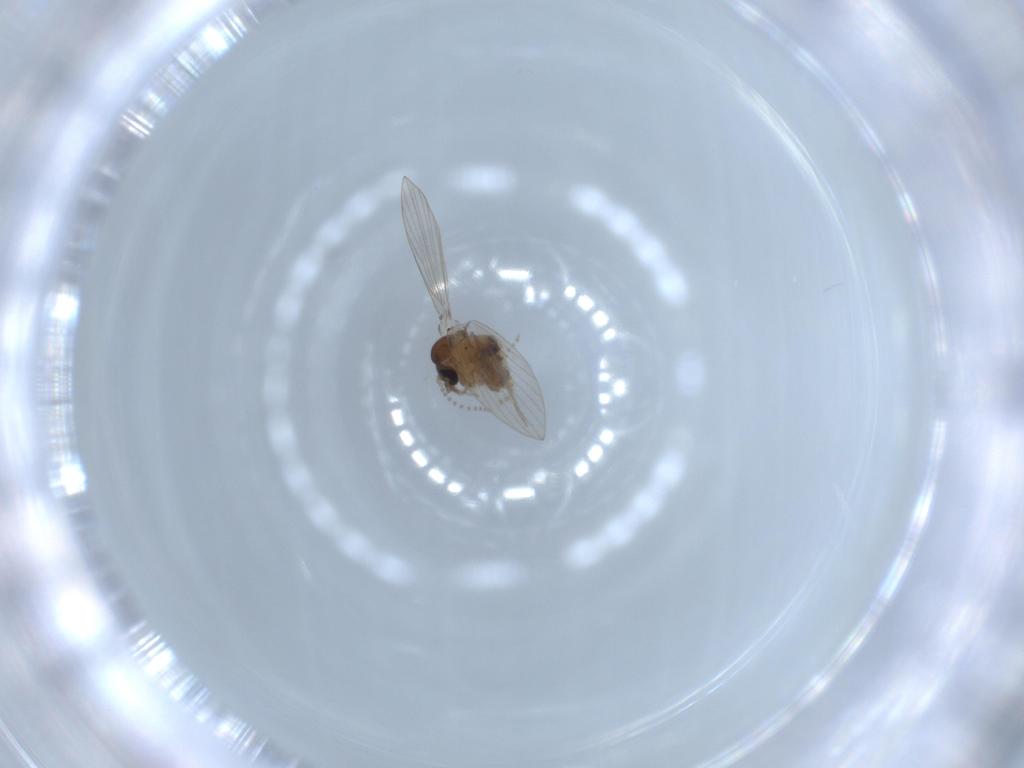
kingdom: Animalia
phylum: Arthropoda
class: Insecta
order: Diptera
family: Psychodidae
